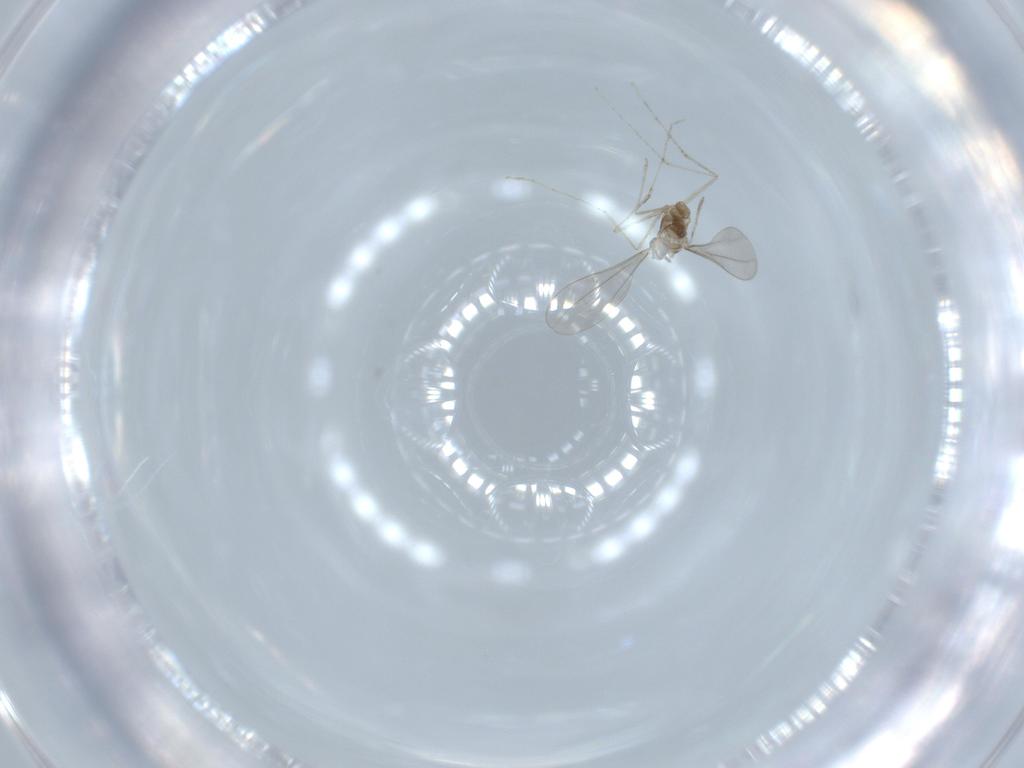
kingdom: Animalia
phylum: Arthropoda
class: Insecta
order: Diptera
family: Cecidomyiidae
